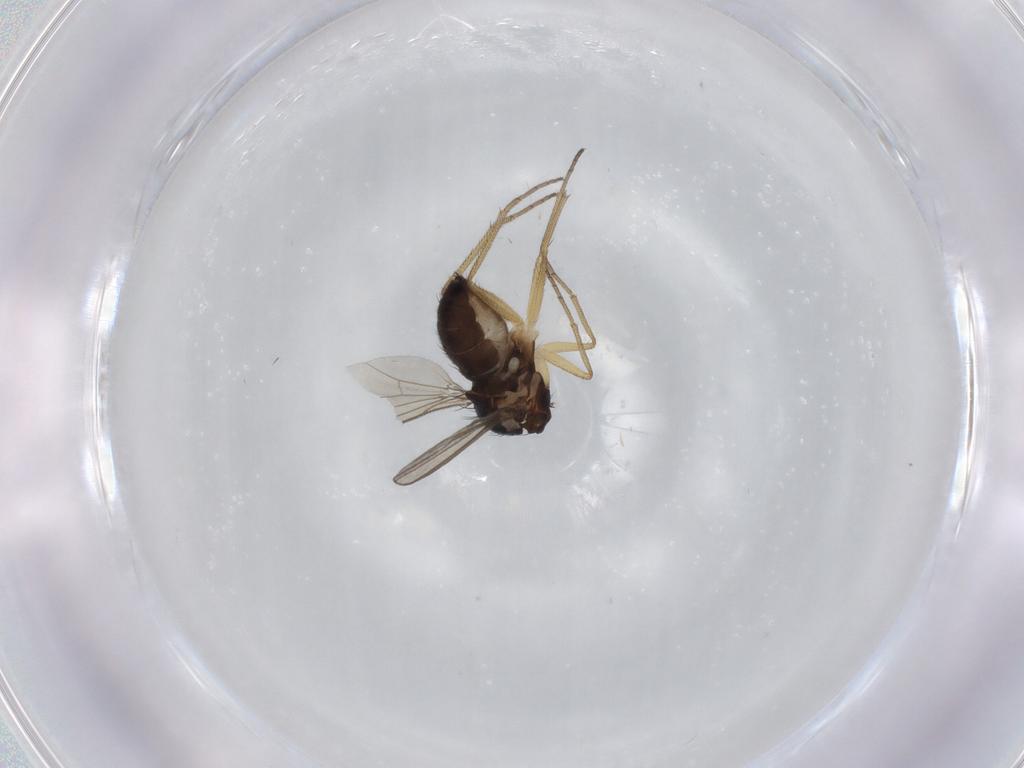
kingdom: Animalia
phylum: Arthropoda
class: Insecta
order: Diptera
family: Dolichopodidae
